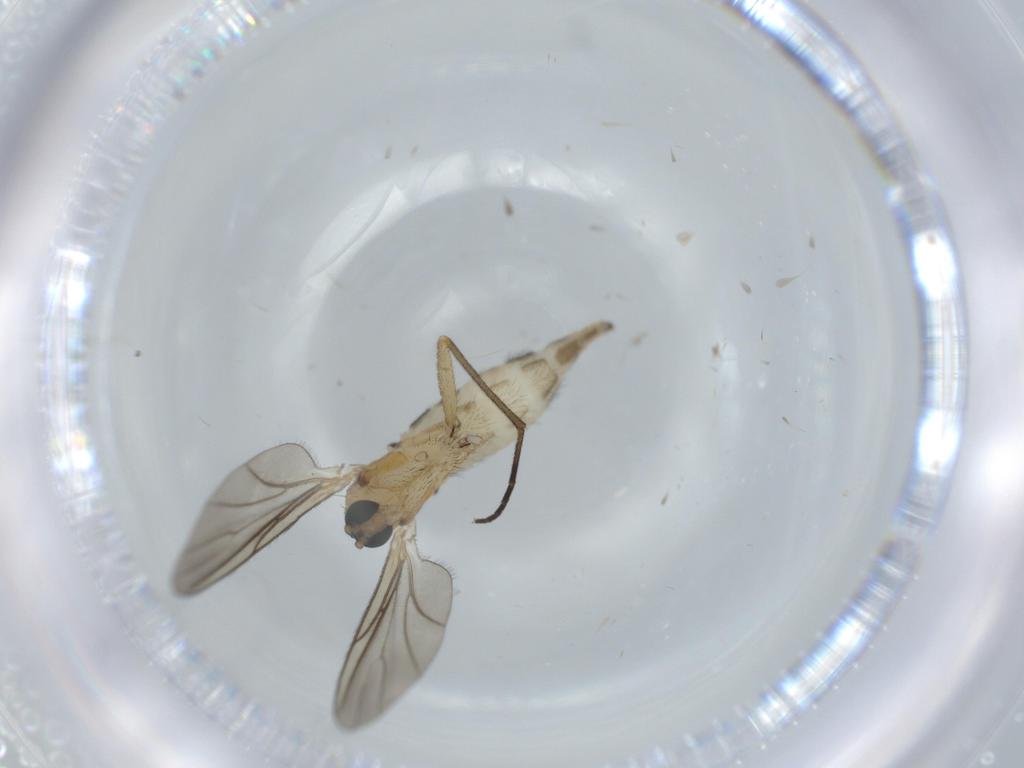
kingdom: Animalia
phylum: Arthropoda
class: Insecta
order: Diptera
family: Sciaridae
